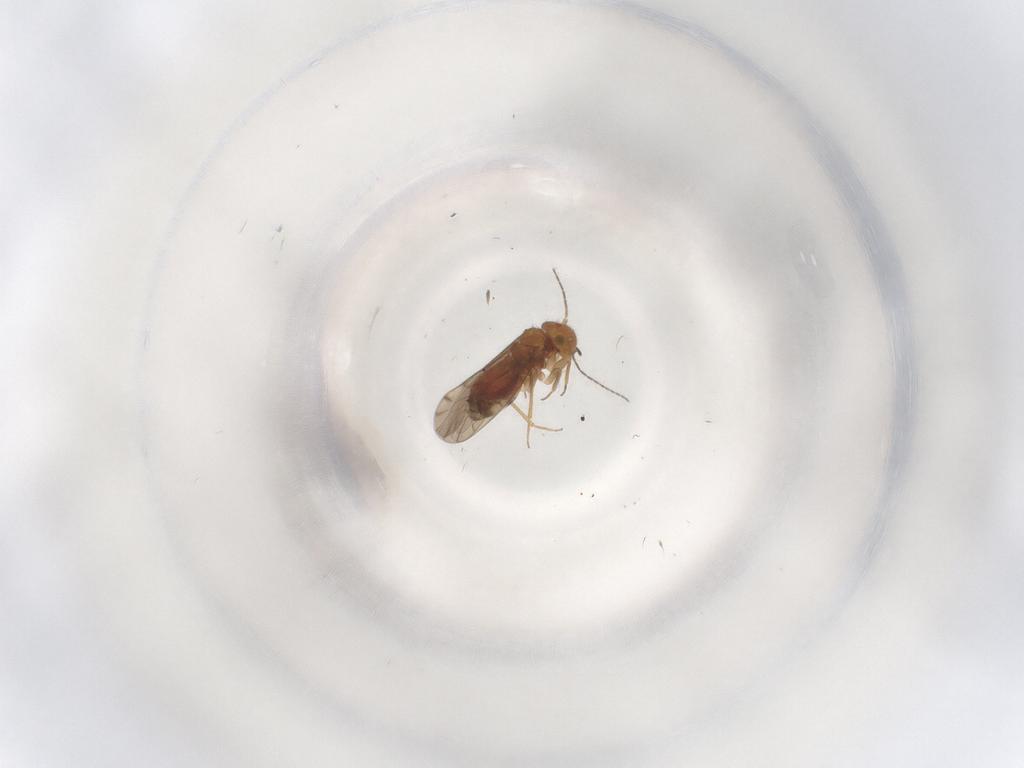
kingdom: Animalia
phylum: Arthropoda
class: Insecta
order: Psocodea
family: Ectopsocidae
